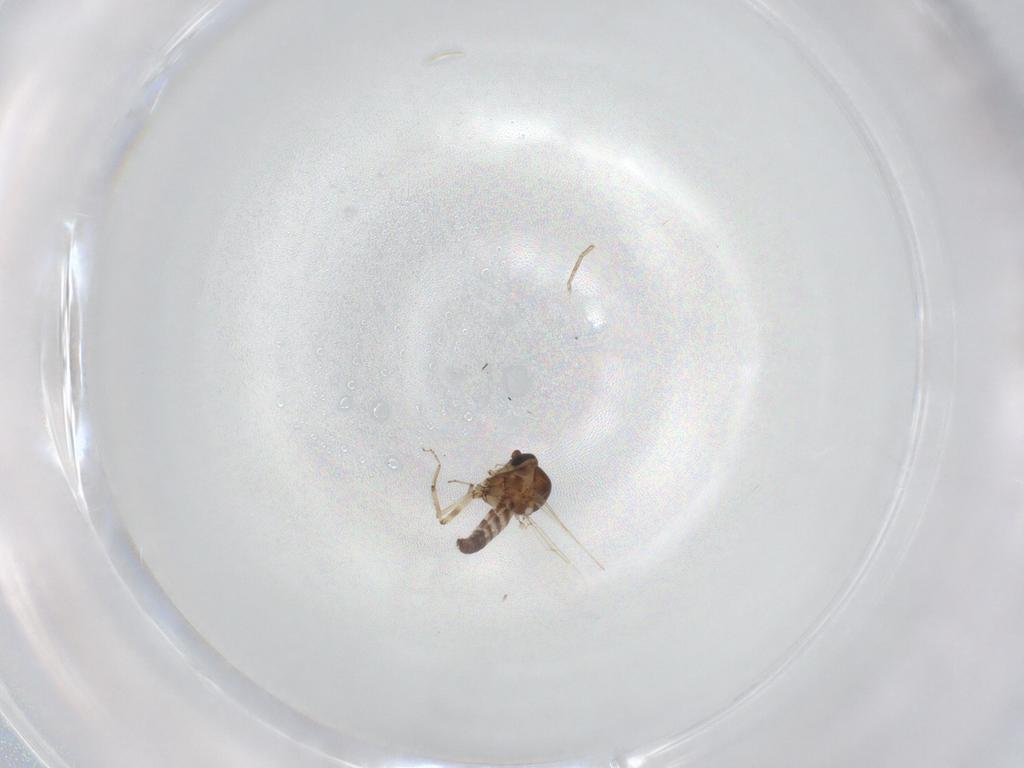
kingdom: Animalia
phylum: Arthropoda
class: Insecta
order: Diptera
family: Ceratopogonidae
